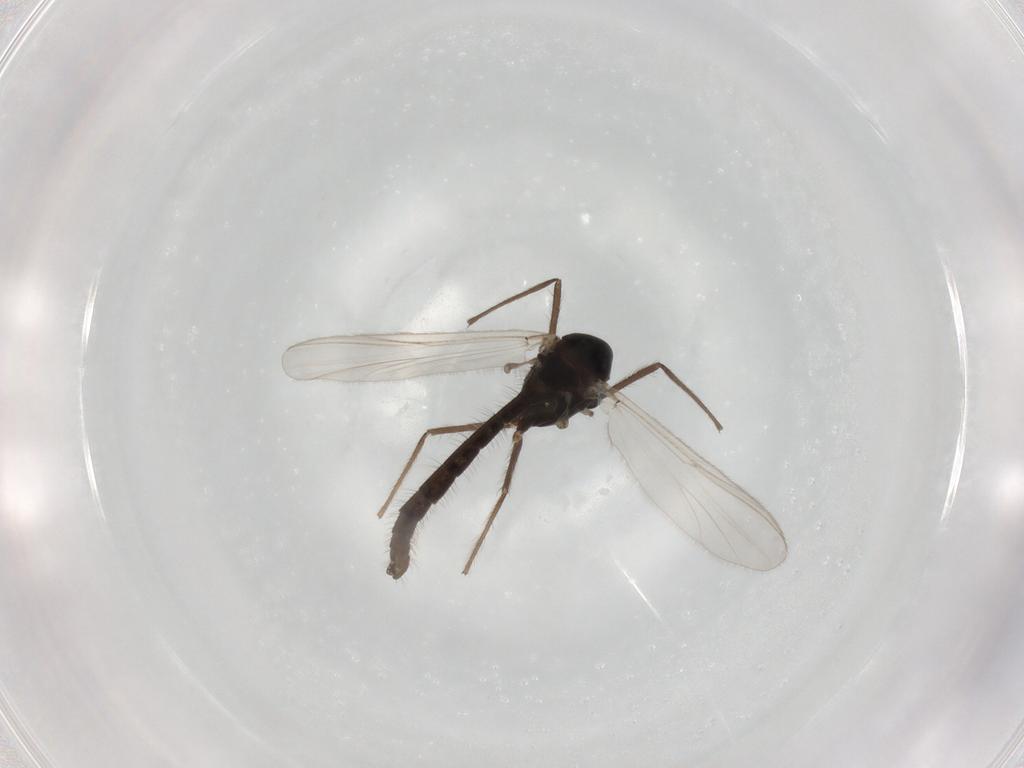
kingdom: Animalia
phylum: Arthropoda
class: Insecta
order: Diptera
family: Chironomidae
